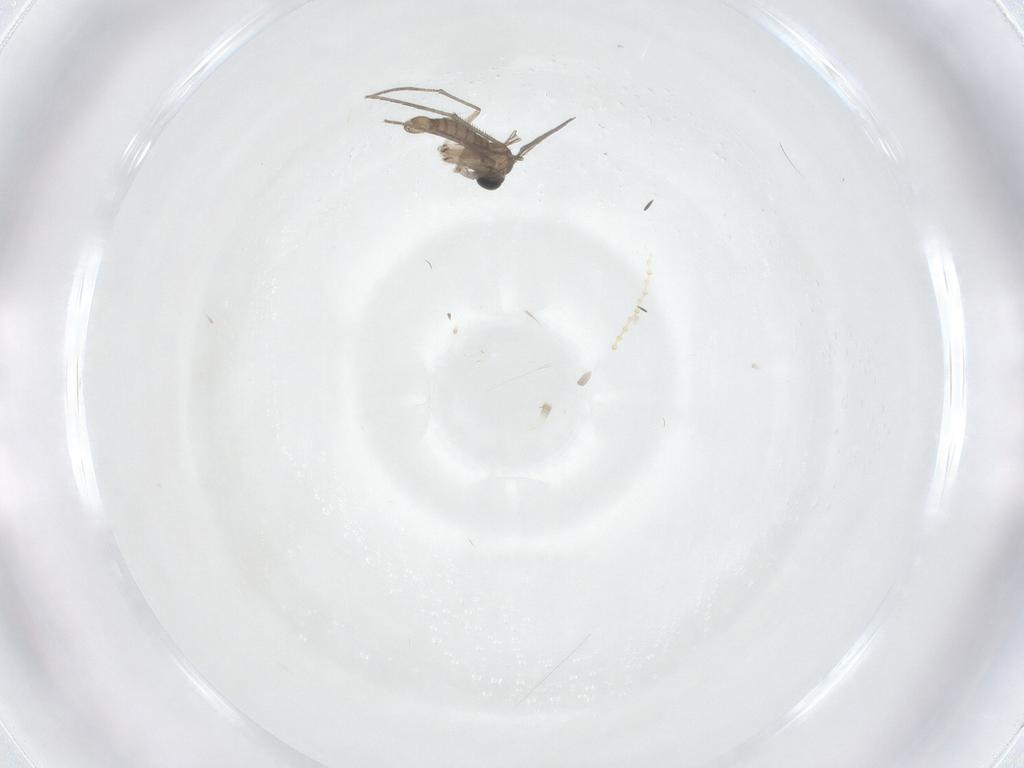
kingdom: Animalia
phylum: Arthropoda
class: Insecta
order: Diptera
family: Sciaridae
